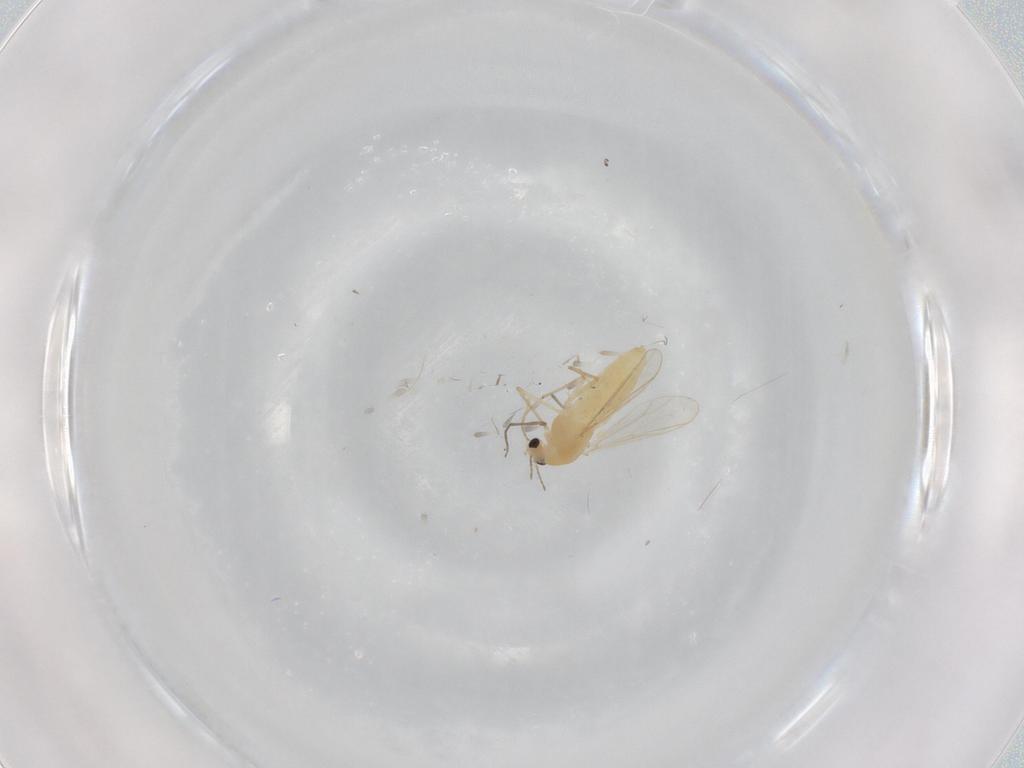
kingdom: Animalia
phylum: Arthropoda
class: Insecta
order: Diptera
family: Chironomidae
